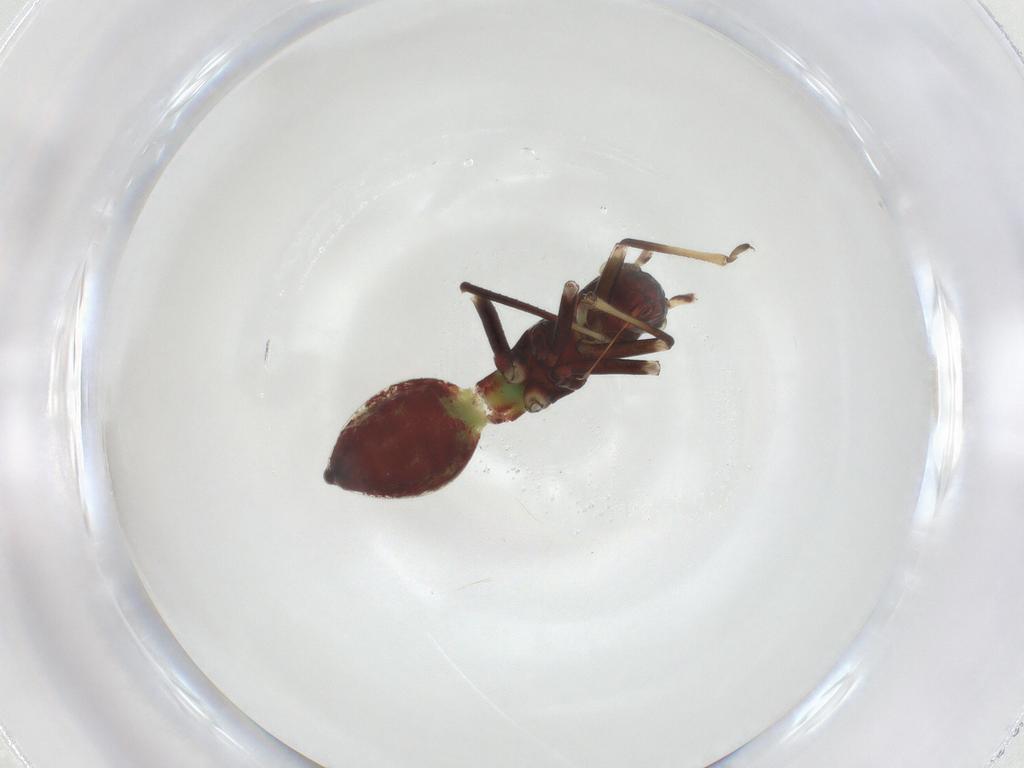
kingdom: Animalia
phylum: Arthropoda
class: Insecta
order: Hemiptera
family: Miridae
